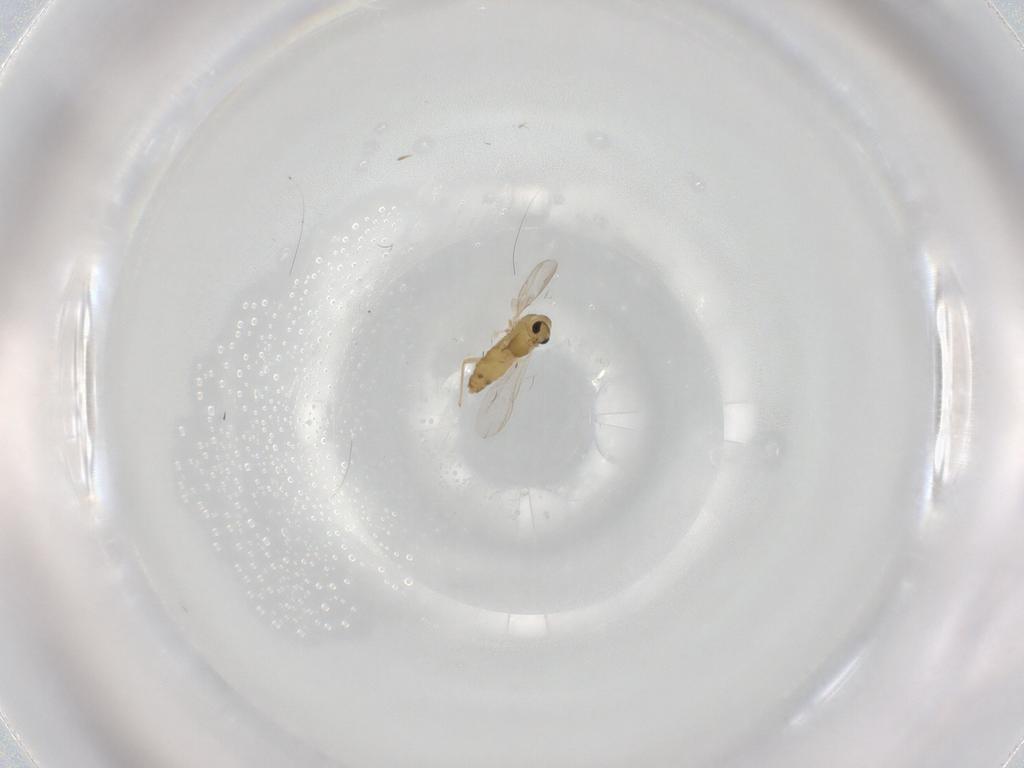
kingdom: Animalia
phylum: Arthropoda
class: Insecta
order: Diptera
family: Chironomidae
